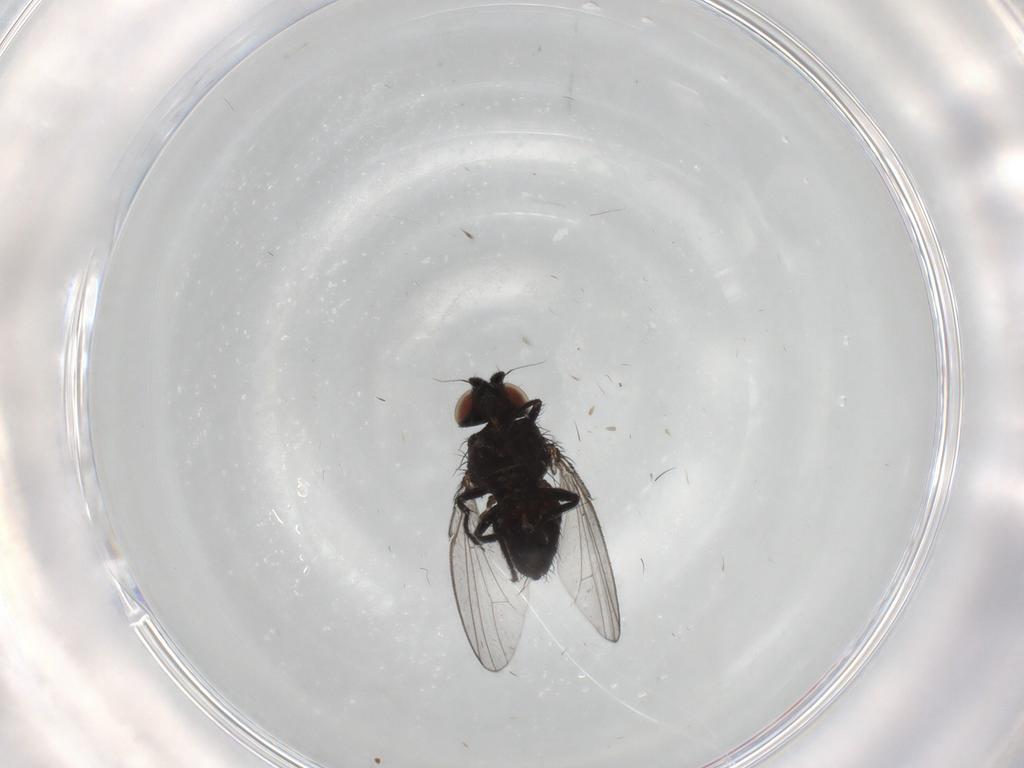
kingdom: Animalia
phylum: Arthropoda
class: Insecta
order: Diptera
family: Milichiidae
